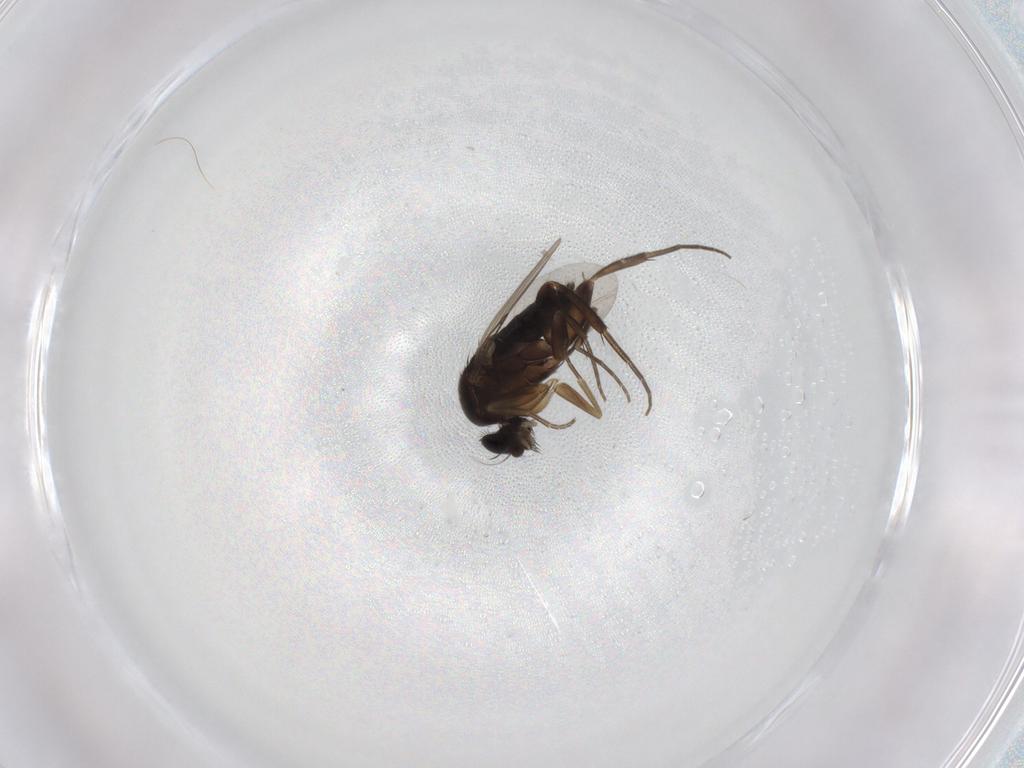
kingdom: Animalia
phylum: Arthropoda
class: Insecta
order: Diptera
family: Phoridae
